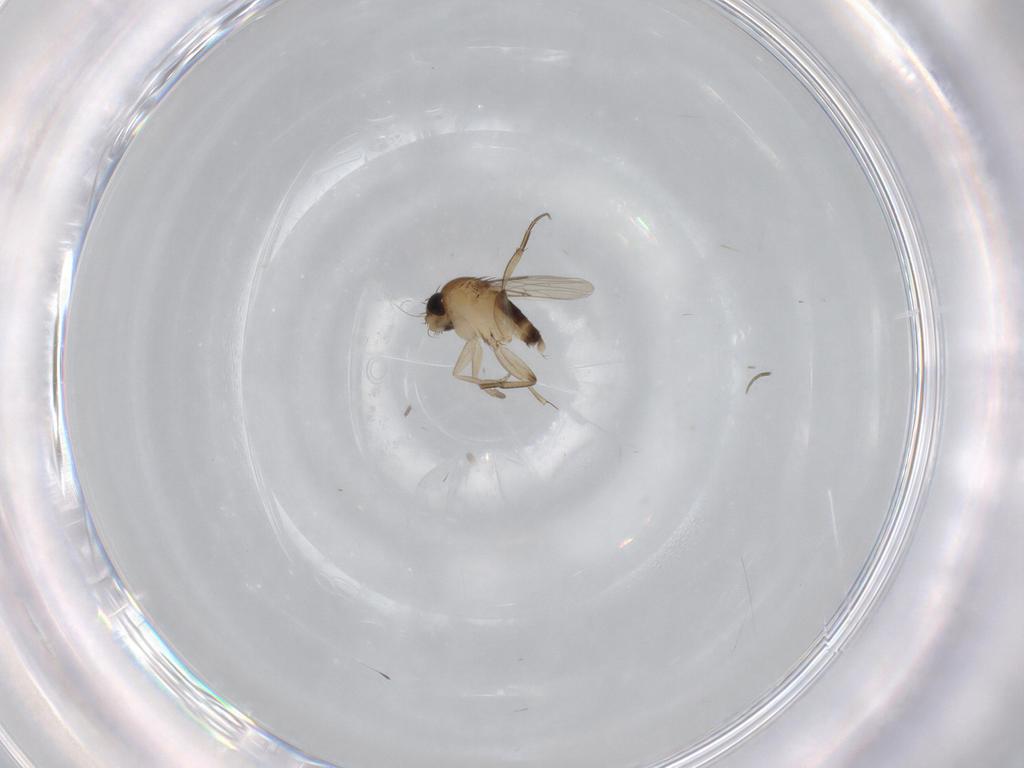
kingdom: Animalia
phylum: Arthropoda
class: Insecta
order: Diptera
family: Phoridae
